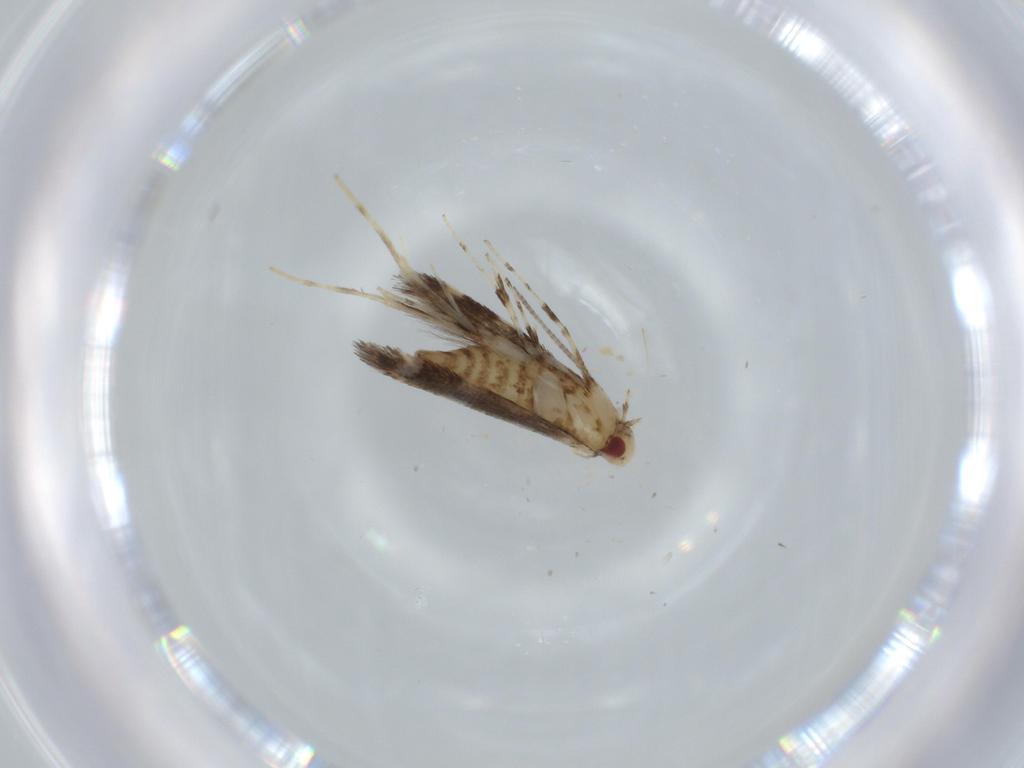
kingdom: Animalia
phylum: Arthropoda
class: Insecta
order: Lepidoptera
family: Gracillariidae
